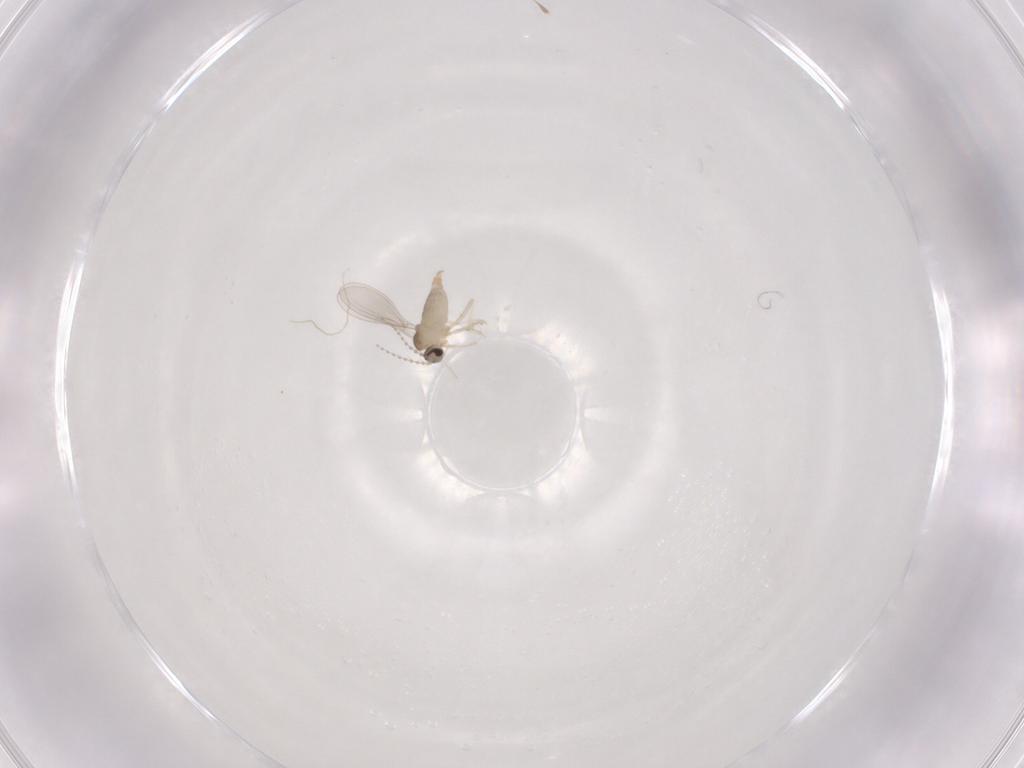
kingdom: Animalia
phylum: Arthropoda
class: Insecta
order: Diptera
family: Cecidomyiidae
